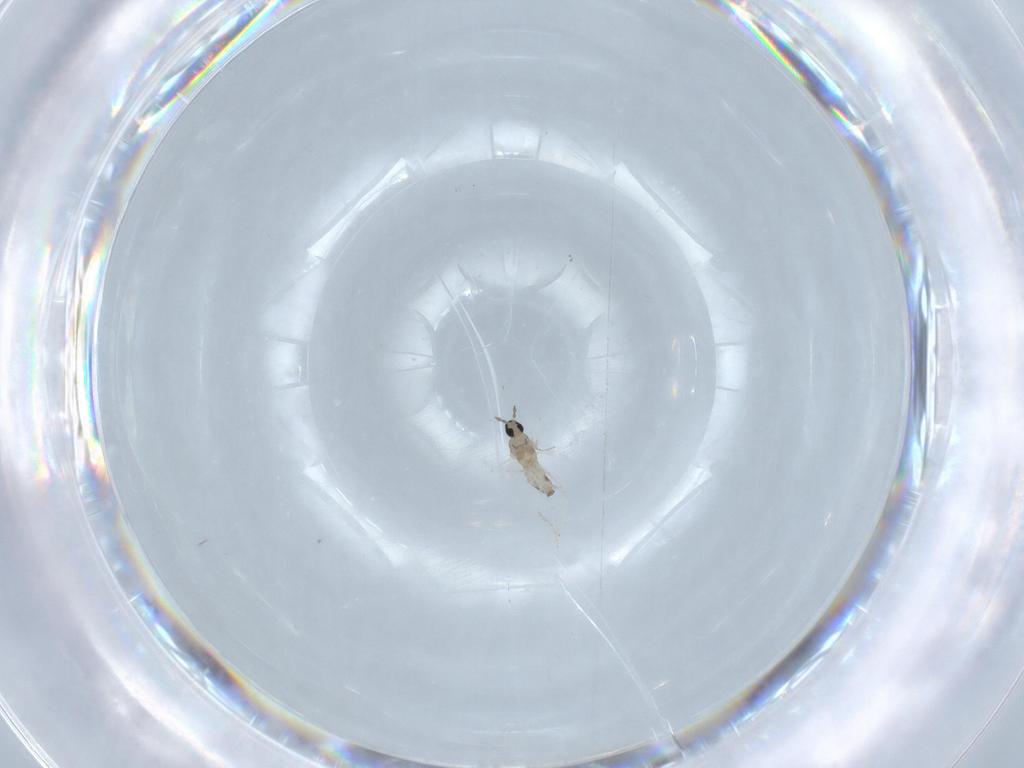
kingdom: Animalia
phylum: Arthropoda
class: Insecta
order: Diptera
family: Cecidomyiidae
